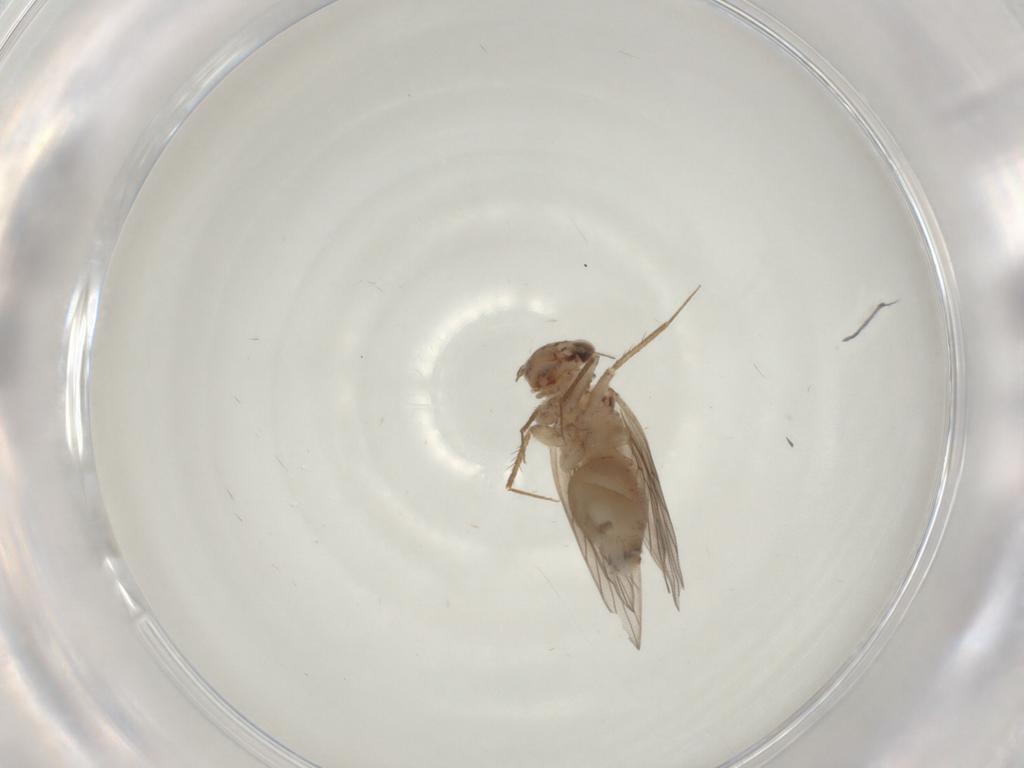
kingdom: Animalia
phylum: Arthropoda
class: Insecta
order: Psocodea
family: Lepidopsocidae
